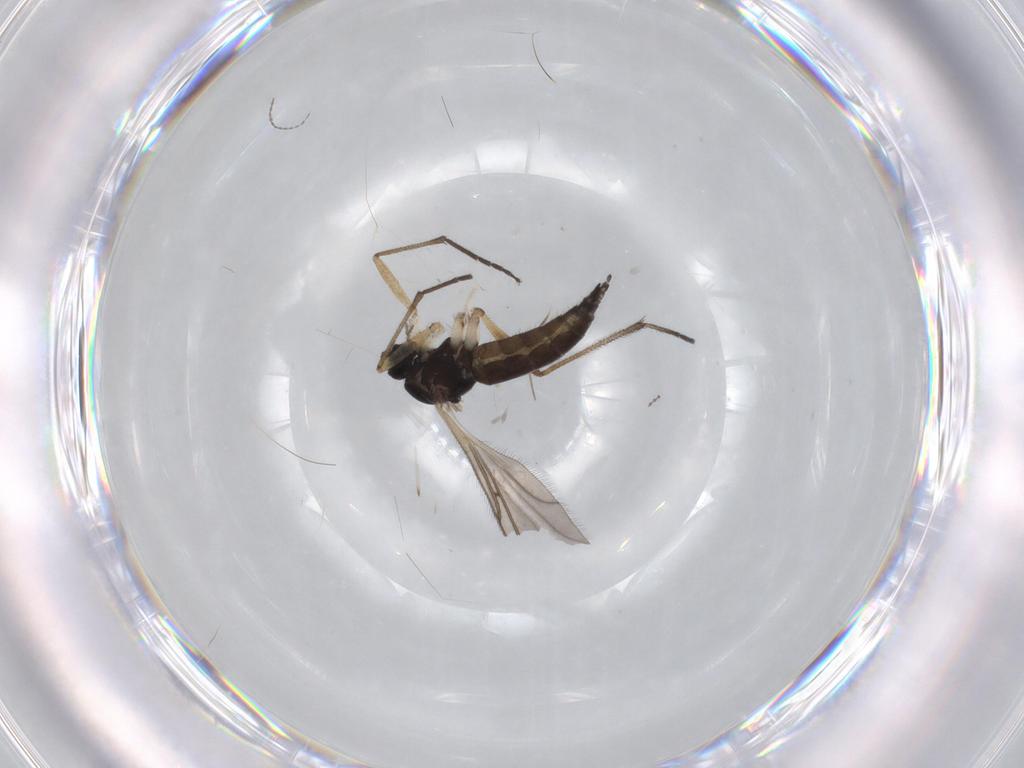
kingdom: Animalia
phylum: Arthropoda
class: Insecta
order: Diptera
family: Sciaridae
